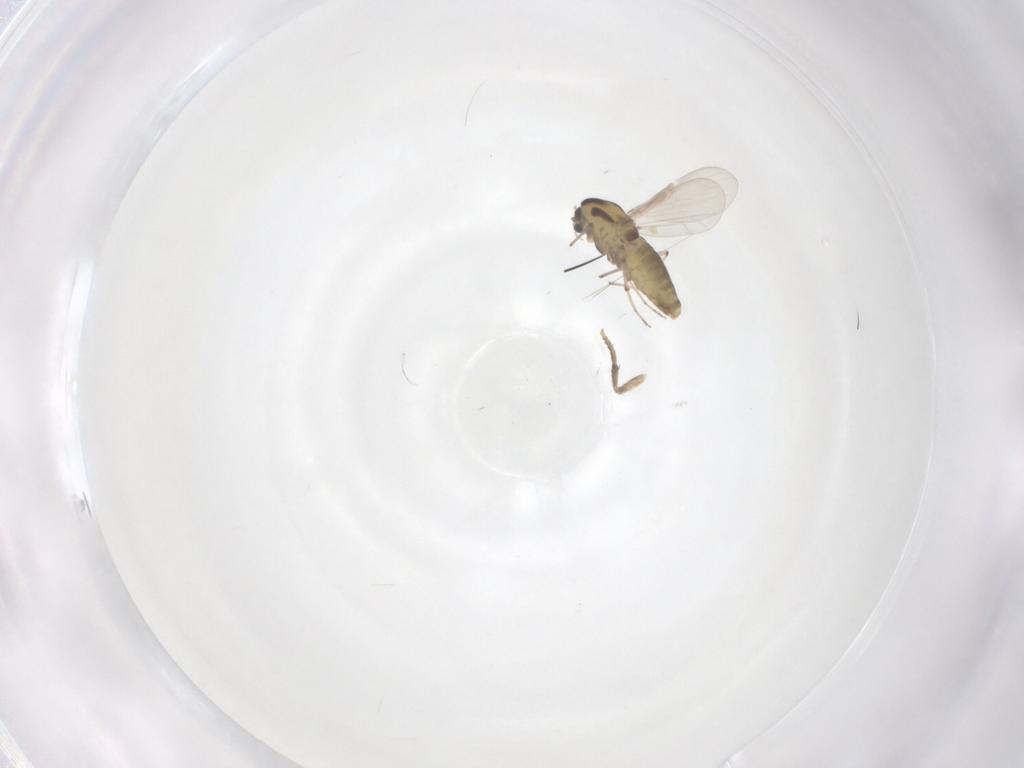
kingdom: Animalia
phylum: Arthropoda
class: Insecta
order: Diptera
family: Chironomidae
